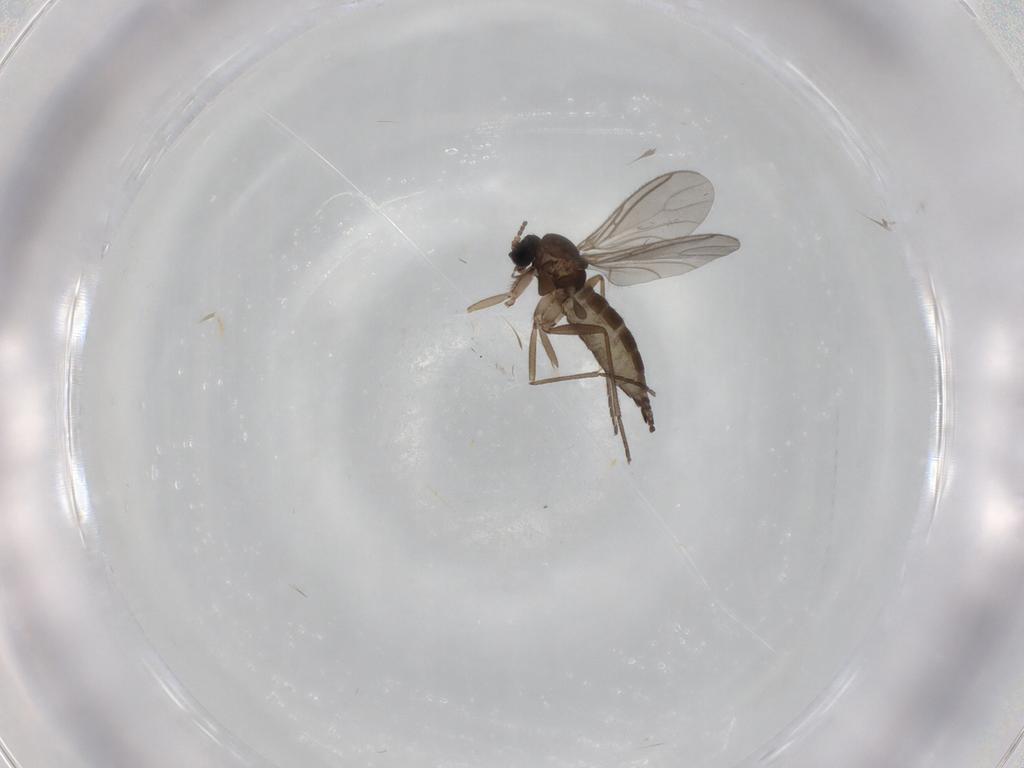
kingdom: Animalia
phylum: Arthropoda
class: Insecta
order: Diptera
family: Sciaridae
